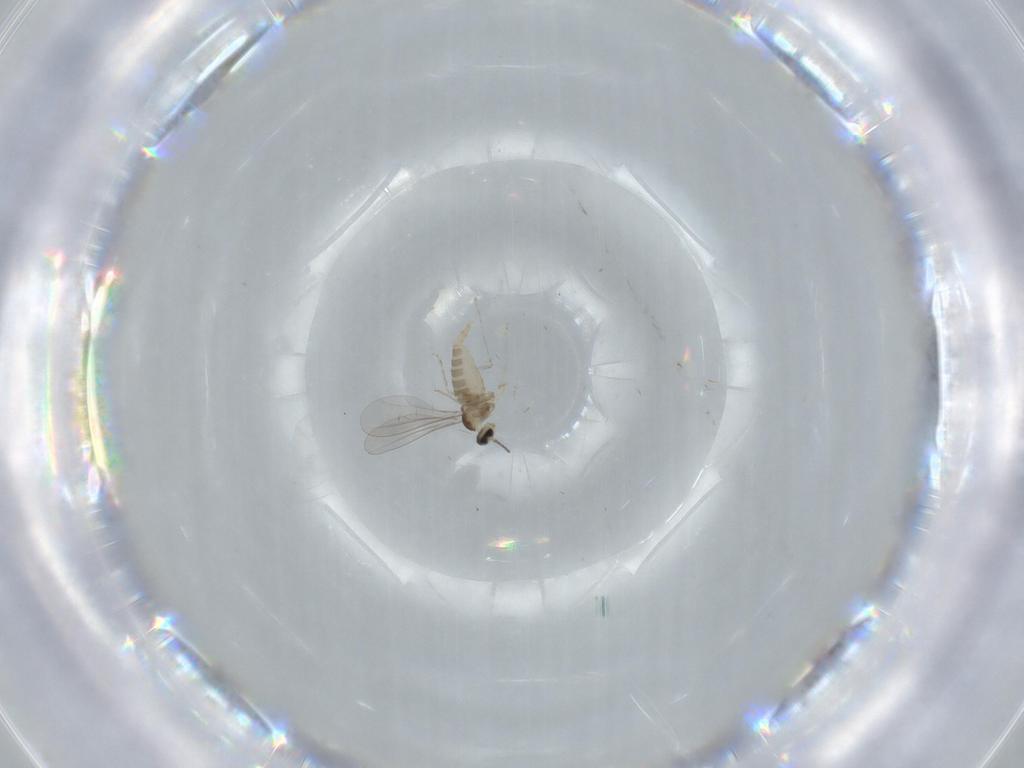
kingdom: Animalia
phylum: Arthropoda
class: Insecta
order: Diptera
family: Cecidomyiidae
